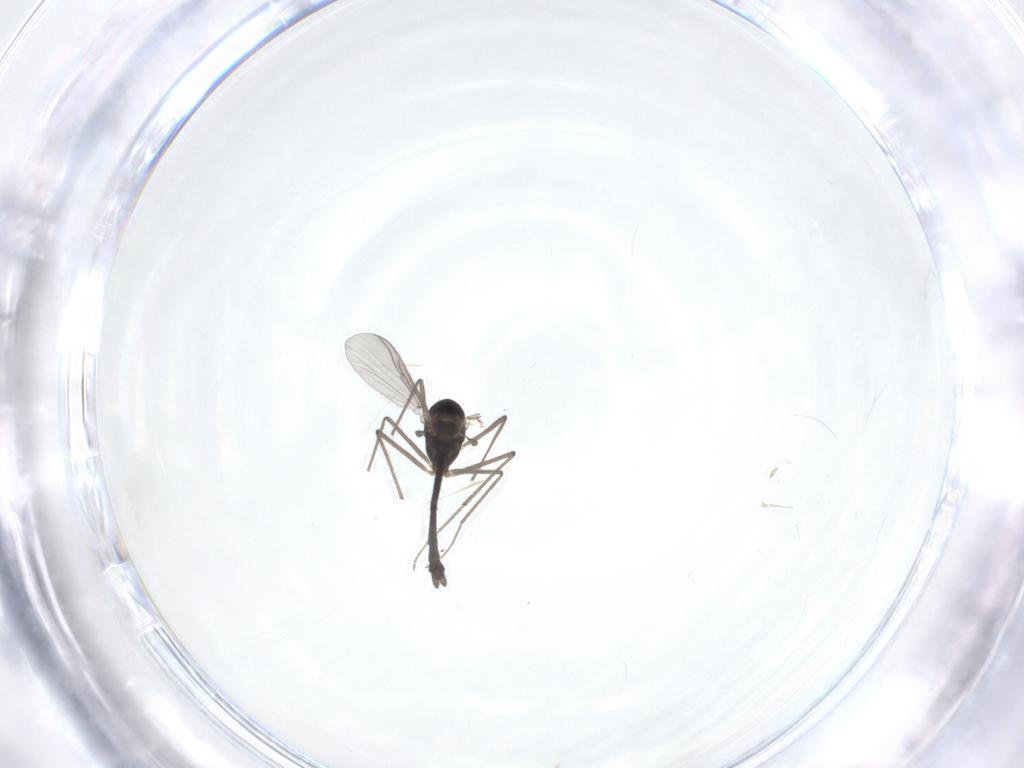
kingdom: Animalia
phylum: Arthropoda
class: Insecta
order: Diptera
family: Chironomidae
